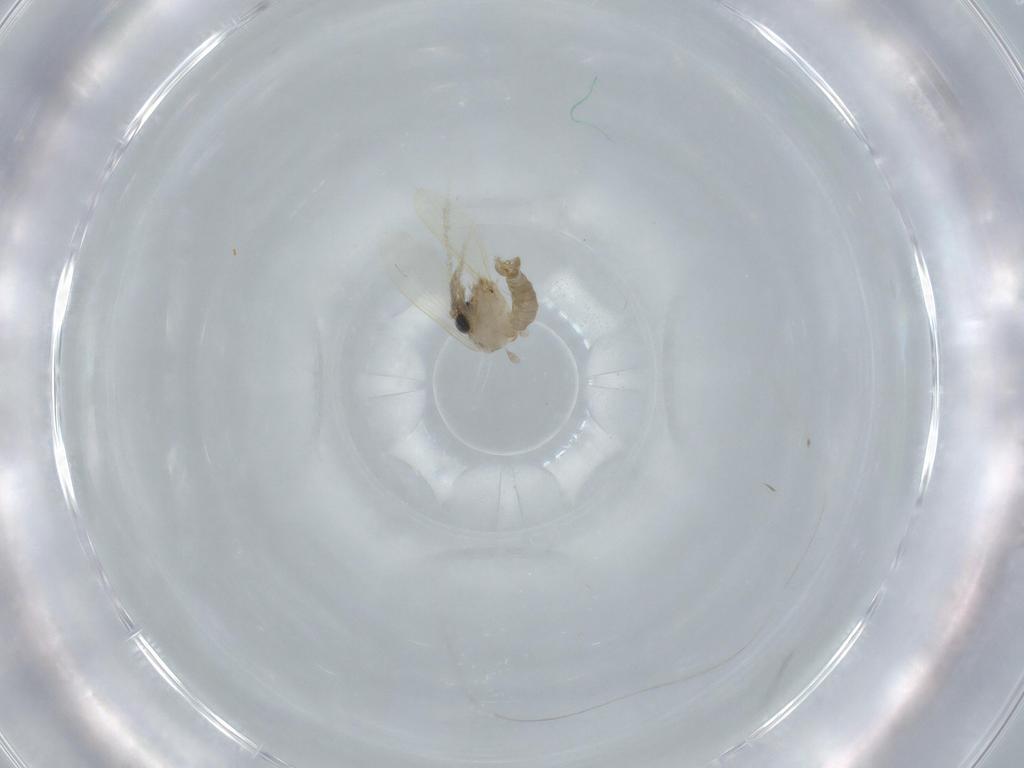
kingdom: Animalia
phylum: Arthropoda
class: Insecta
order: Diptera
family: Psychodidae
